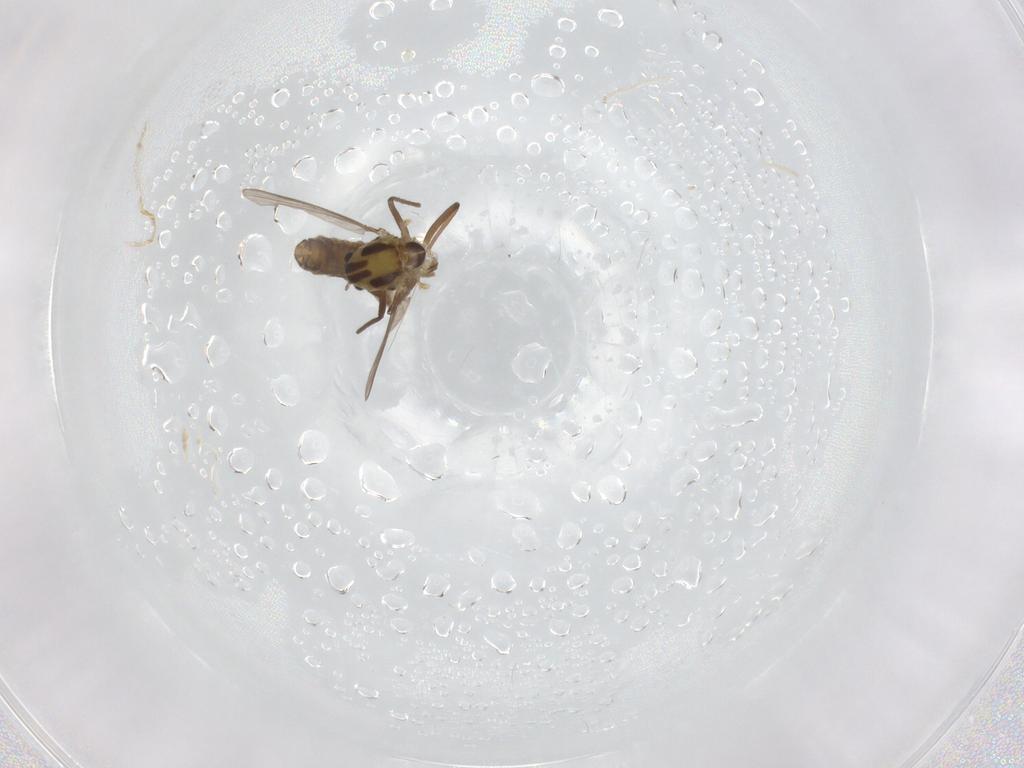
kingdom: Animalia
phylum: Arthropoda
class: Insecta
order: Diptera
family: Chironomidae
